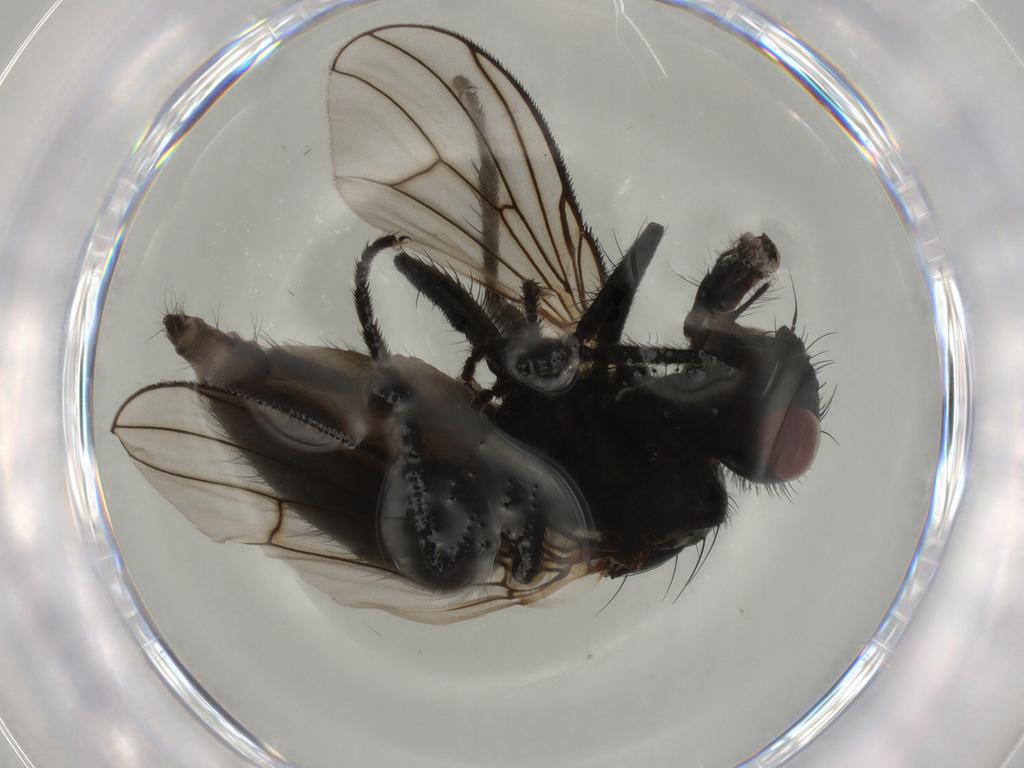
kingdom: Animalia
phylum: Arthropoda
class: Insecta
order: Diptera
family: Muscidae
